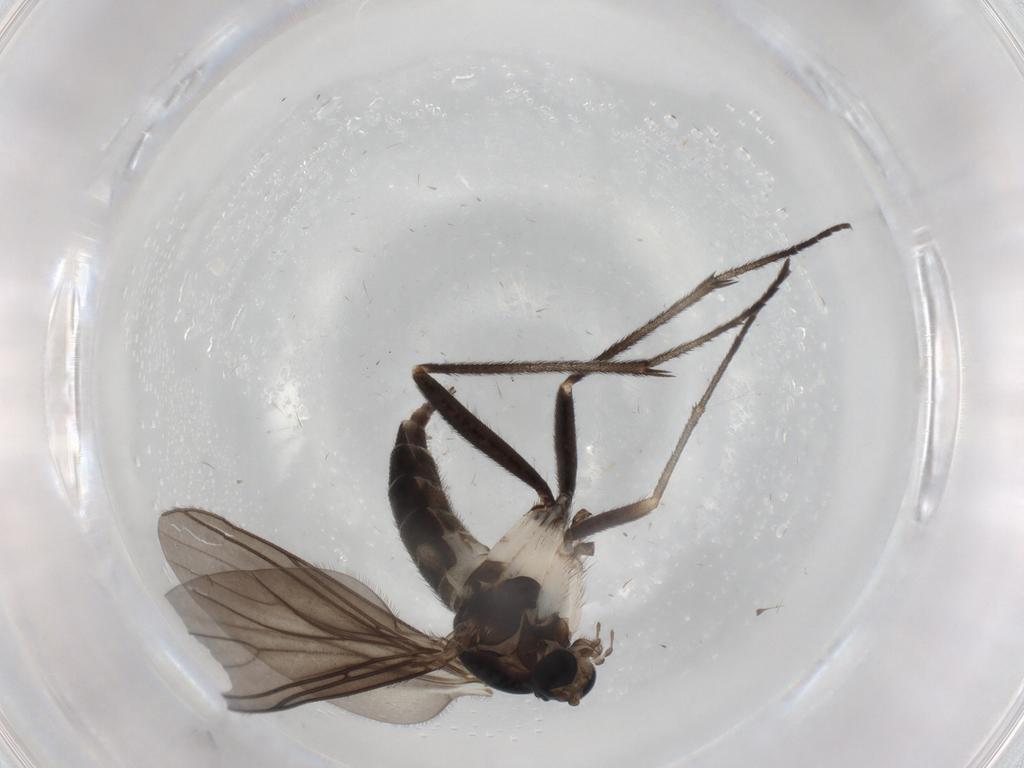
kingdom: Animalia
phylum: Arthropoda
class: Insecta
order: Diptera
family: Sciaridae
